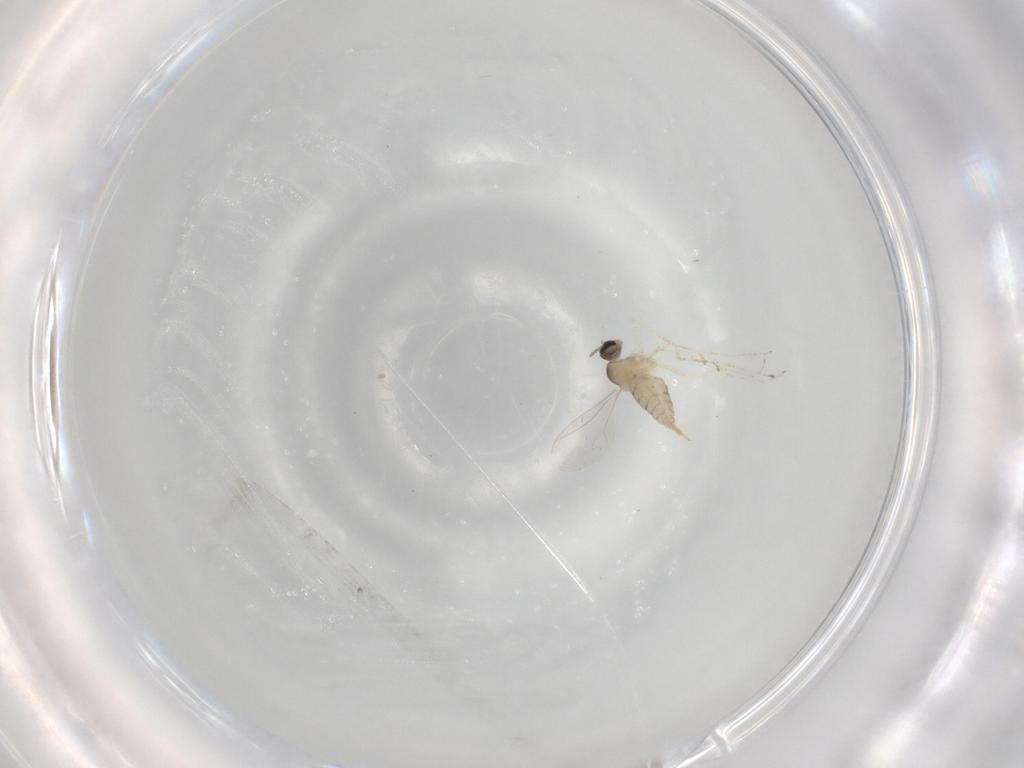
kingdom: Animalia
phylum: Arthropoda
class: Insecta
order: Diptera
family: Cecidomyiidae
